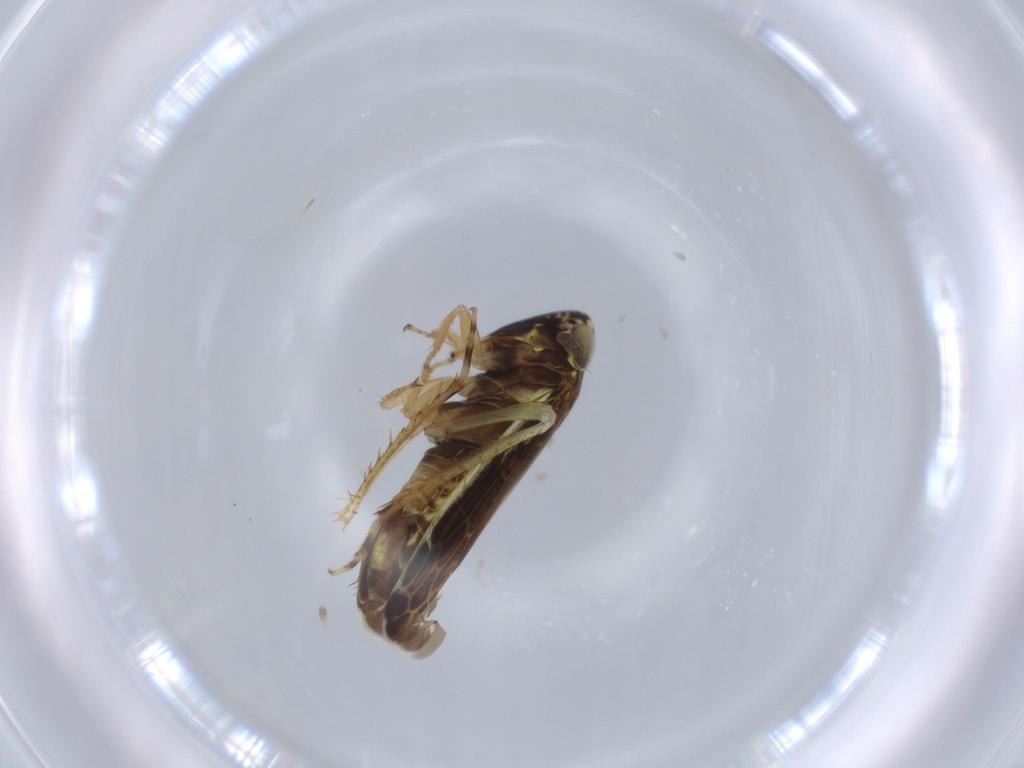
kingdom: Animalia
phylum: Arthropoda
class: Insecta
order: Hemiptera
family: Cicadellidae
